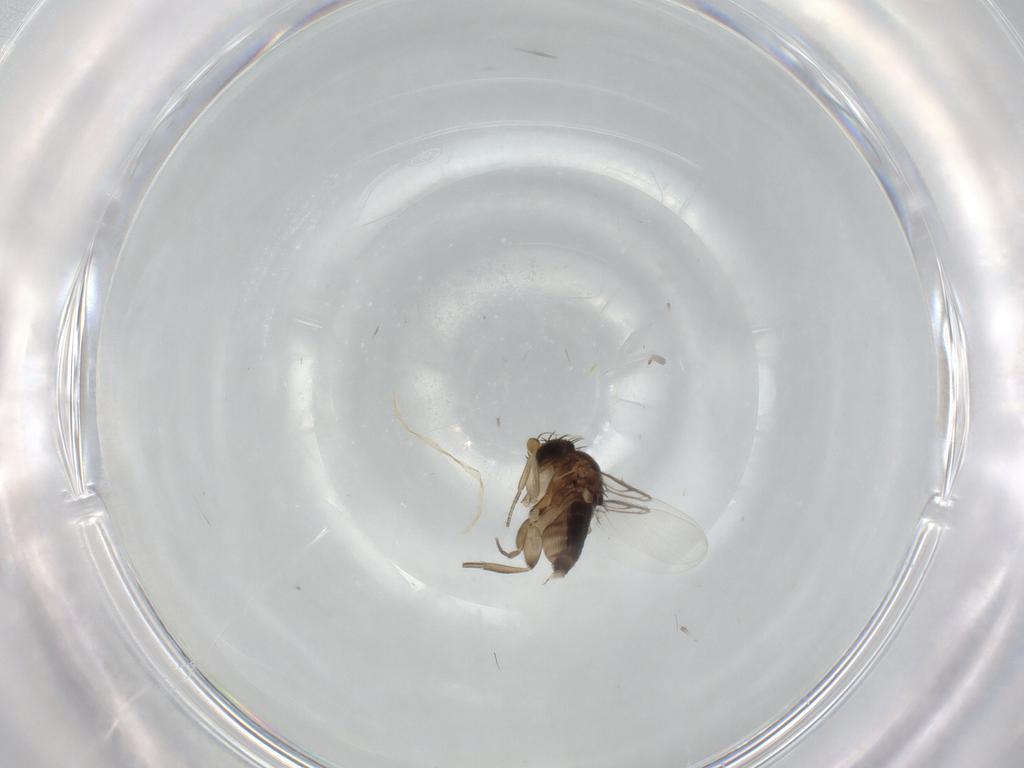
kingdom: Animalia
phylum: Arthropoda
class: Insecta
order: Diptera
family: Phoridae
